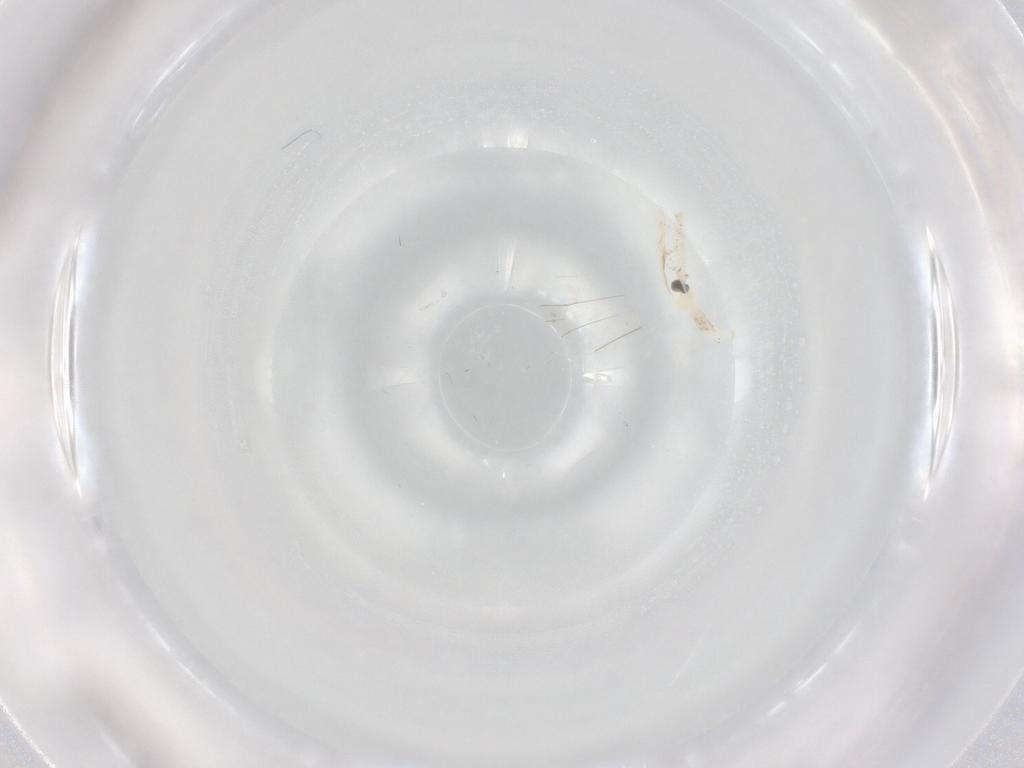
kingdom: Animalia
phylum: Arthropoda
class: Insecta
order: Diptera
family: Cecidomyiidae
